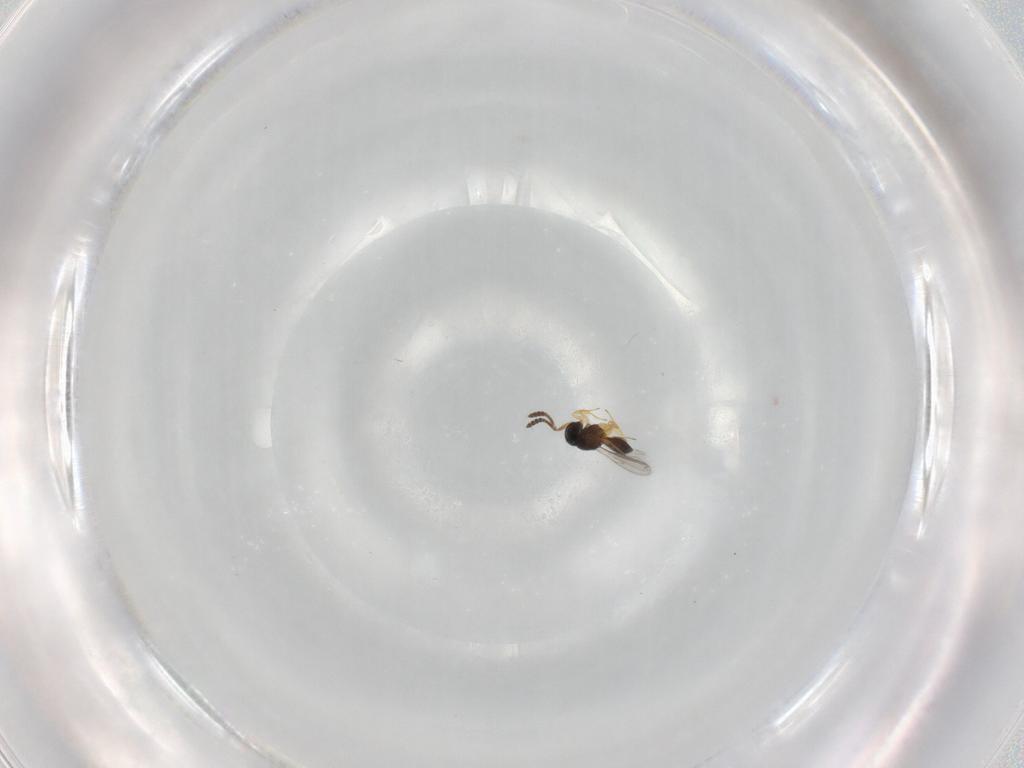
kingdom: Animalia
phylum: Arthropoda
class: Insecta
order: Hymenoptera
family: Scelionidae
